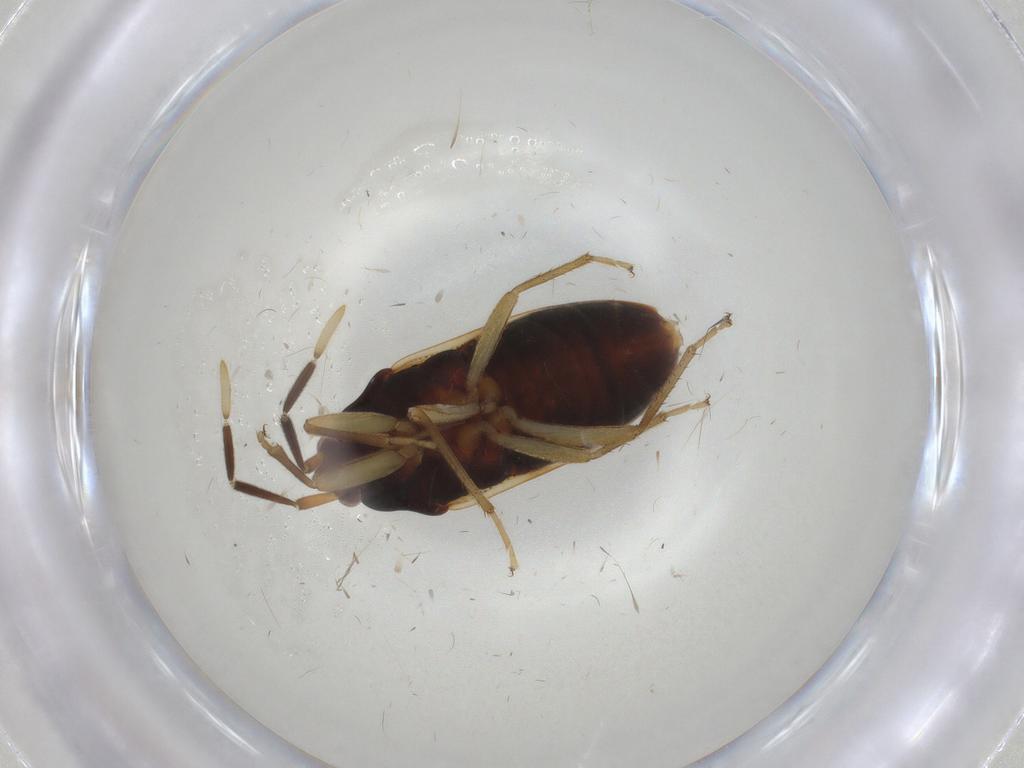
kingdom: Animalia
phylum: Arthropoda
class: Insecta
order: Hemiptera
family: Rhyparochromidae
